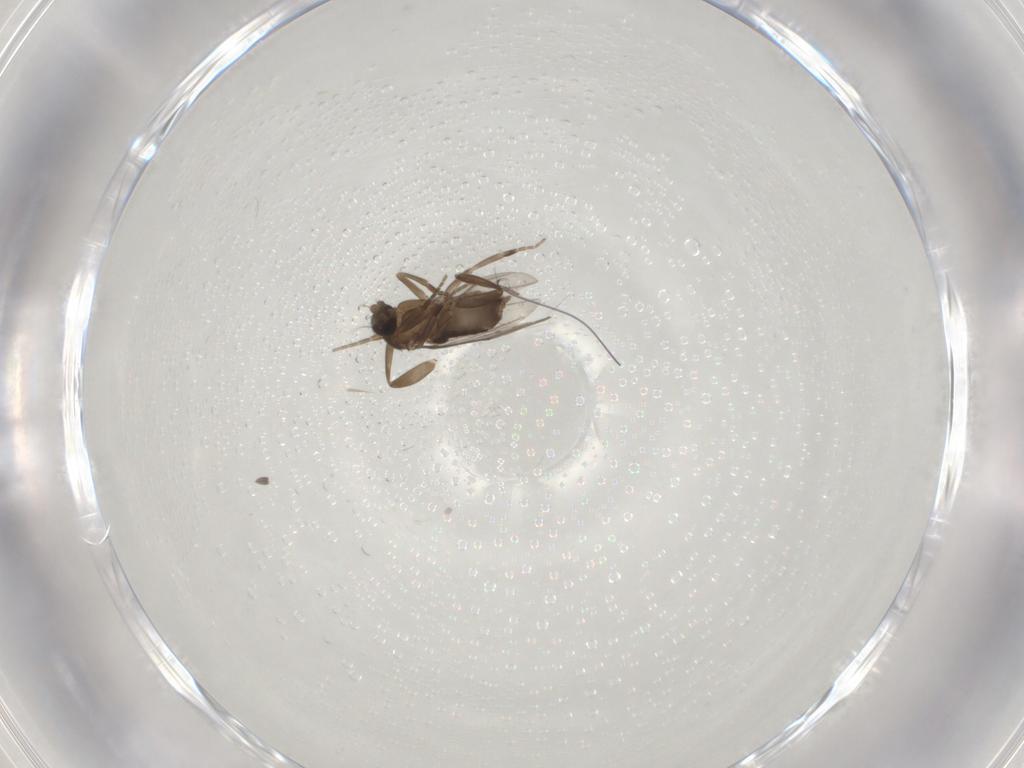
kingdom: Animalia
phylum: Arthropoda
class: Insecta
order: Diptera
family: Phoridae
